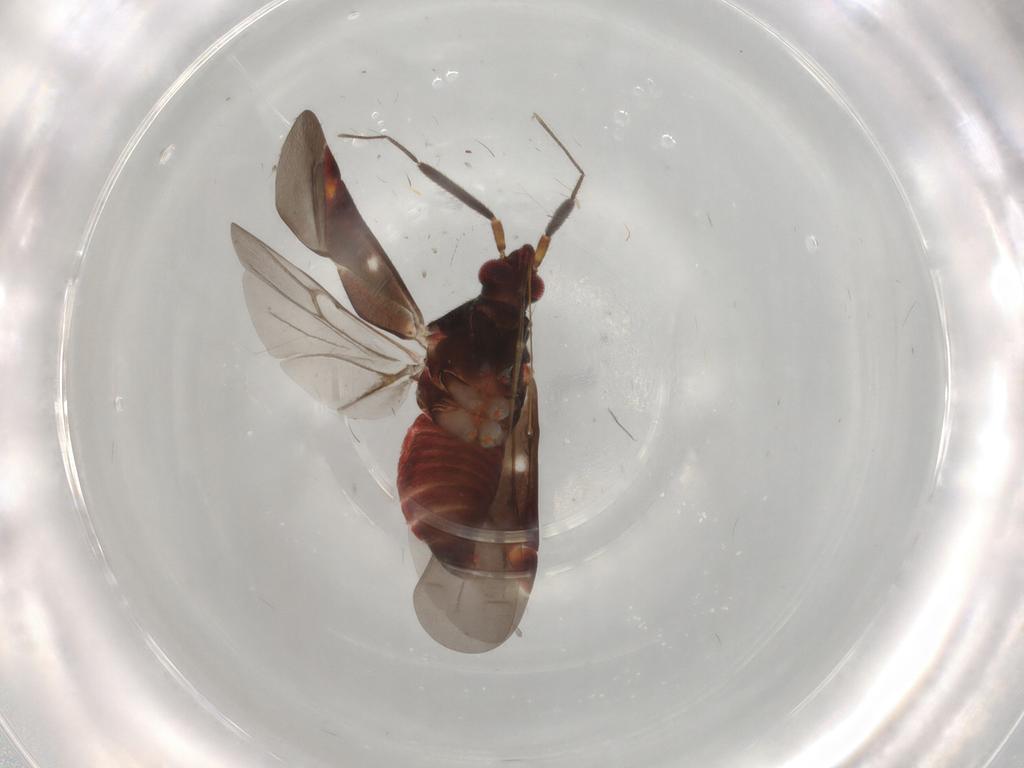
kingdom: Animalia
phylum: Arthropoda
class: Insecta
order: Hemiptera
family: Miridae
